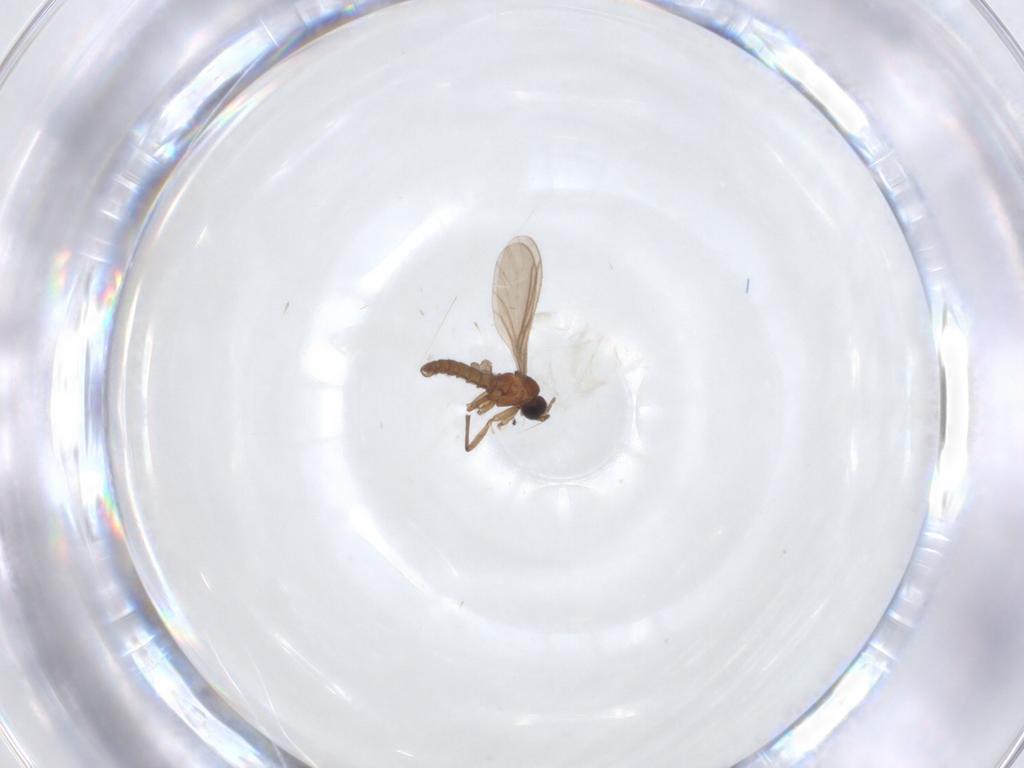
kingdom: Animalia
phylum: Arthropoda
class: Insecta
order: Diptera
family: Sciaridae
